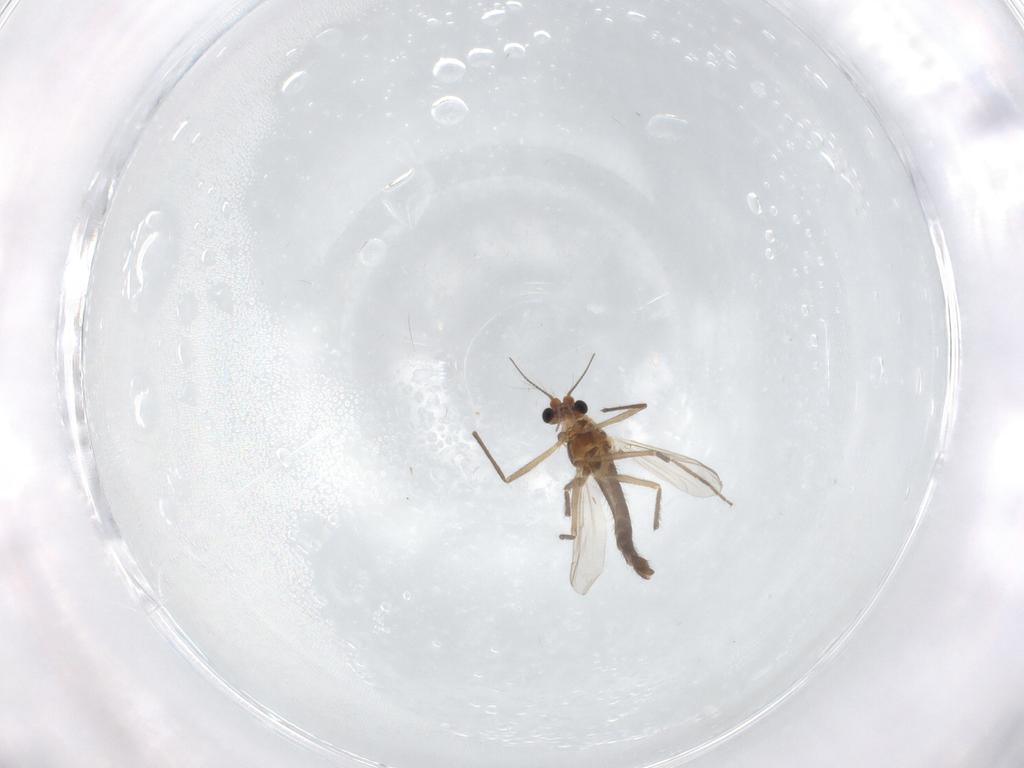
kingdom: Animalia
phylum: Arthropoda
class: Insecta
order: Diptera
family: Chironomidae
